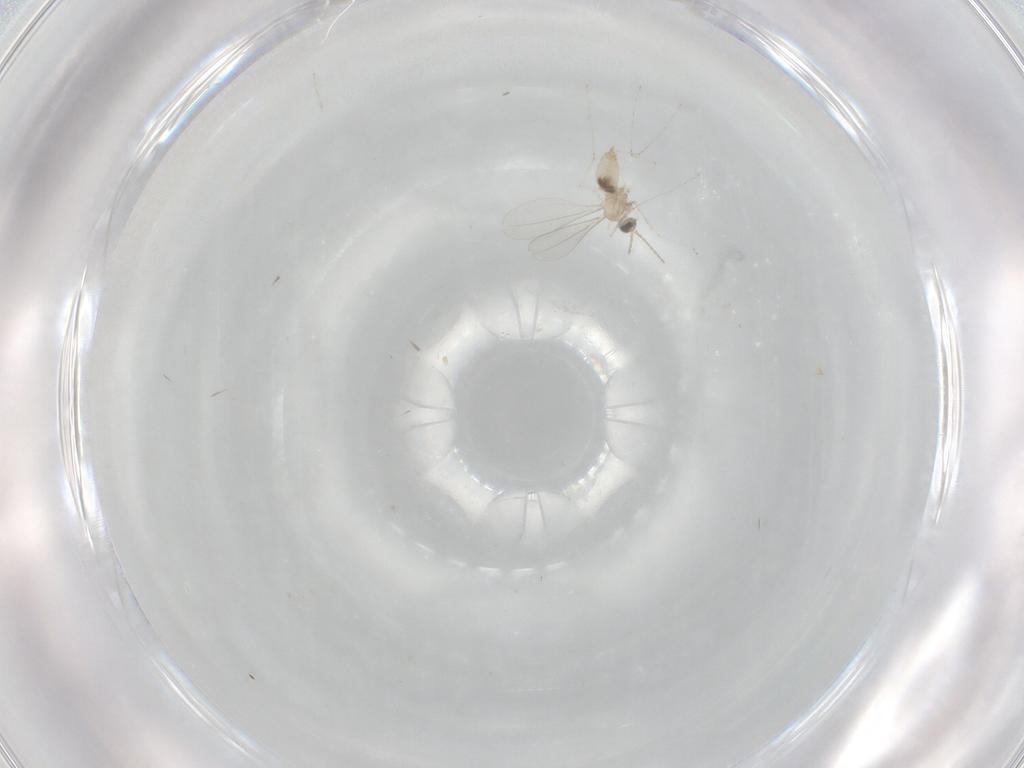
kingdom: Animalia
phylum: Arthropoda
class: Insecta
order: Diptera
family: Cecidomyiidae
